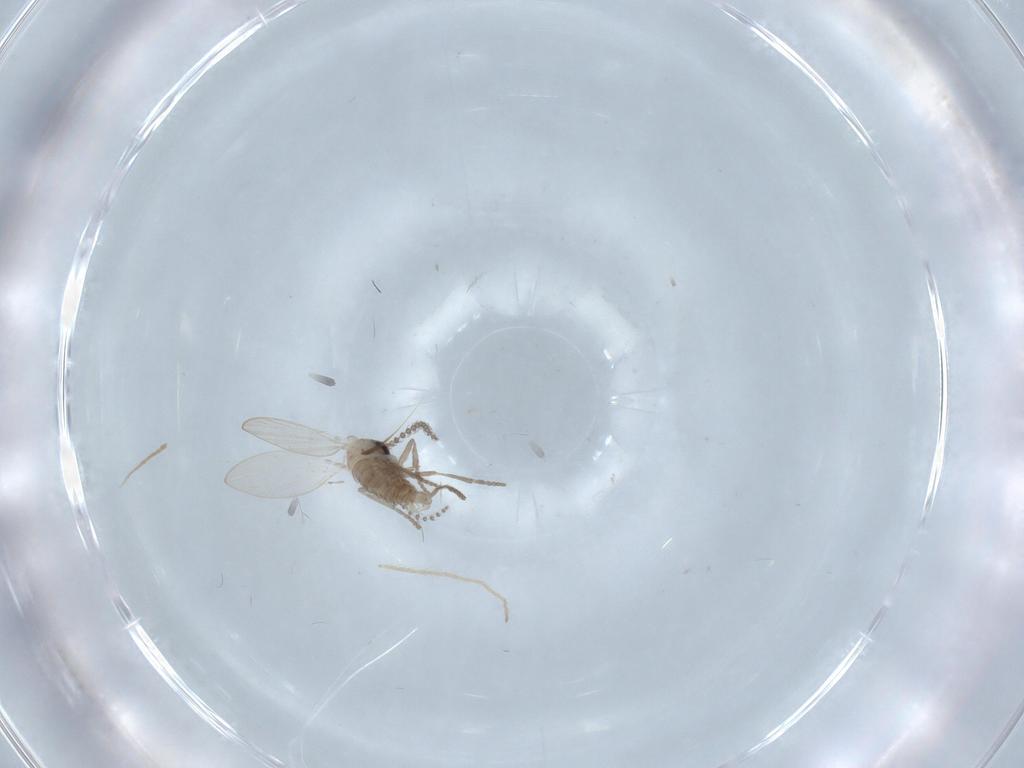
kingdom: Animalia
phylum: Arthropoda
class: Insecta
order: Diptera
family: Psychodidae
